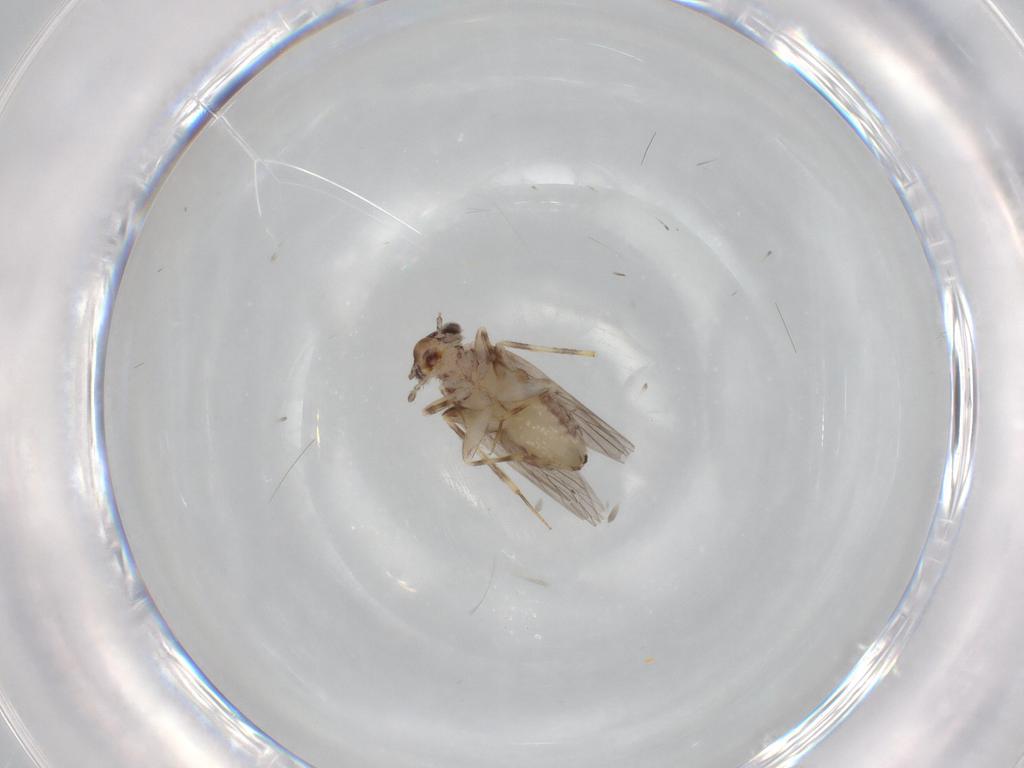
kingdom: Animalia
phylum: Arthropoda
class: Insecta
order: Psocodea
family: Lepidopsocidae
